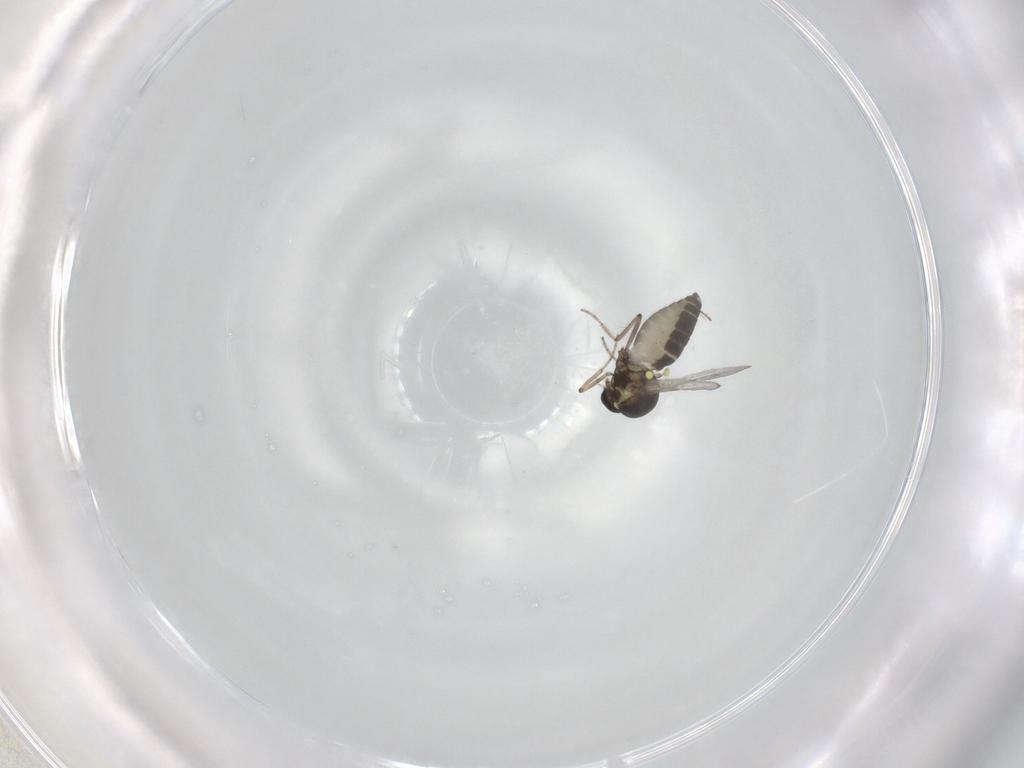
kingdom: Animalia
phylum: Arthropoda
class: Insecta
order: Diptera
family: Ceratopogonidae
